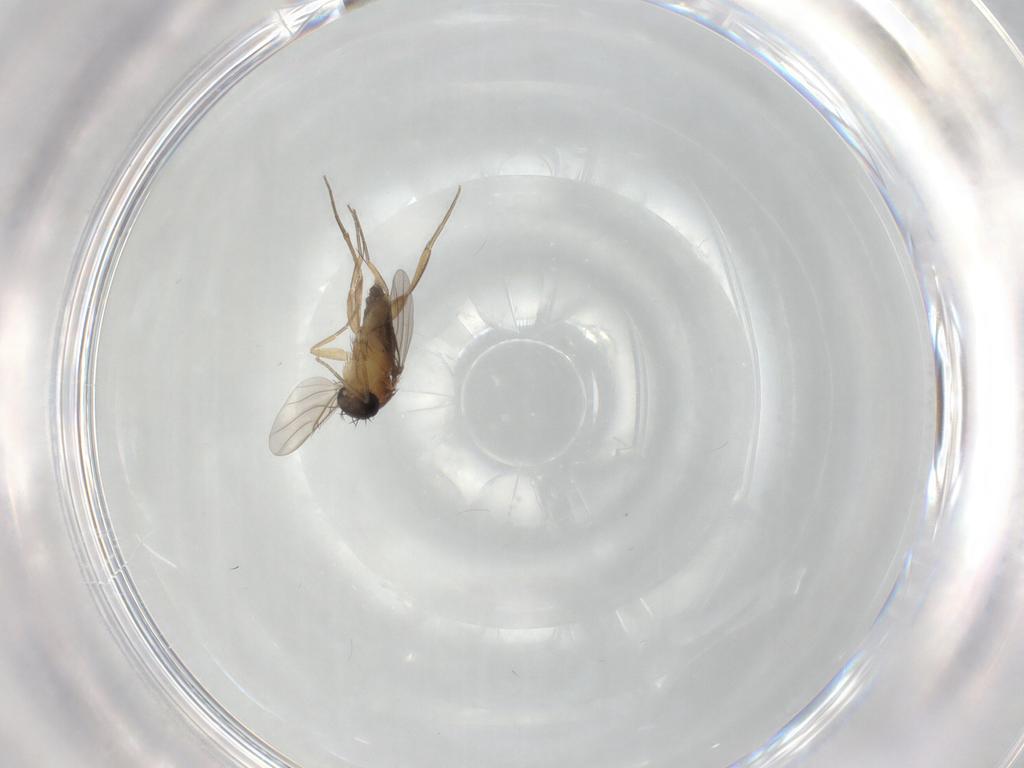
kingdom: Animalia
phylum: Arthropoda
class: Insecta
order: Diptera
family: Phoridae
